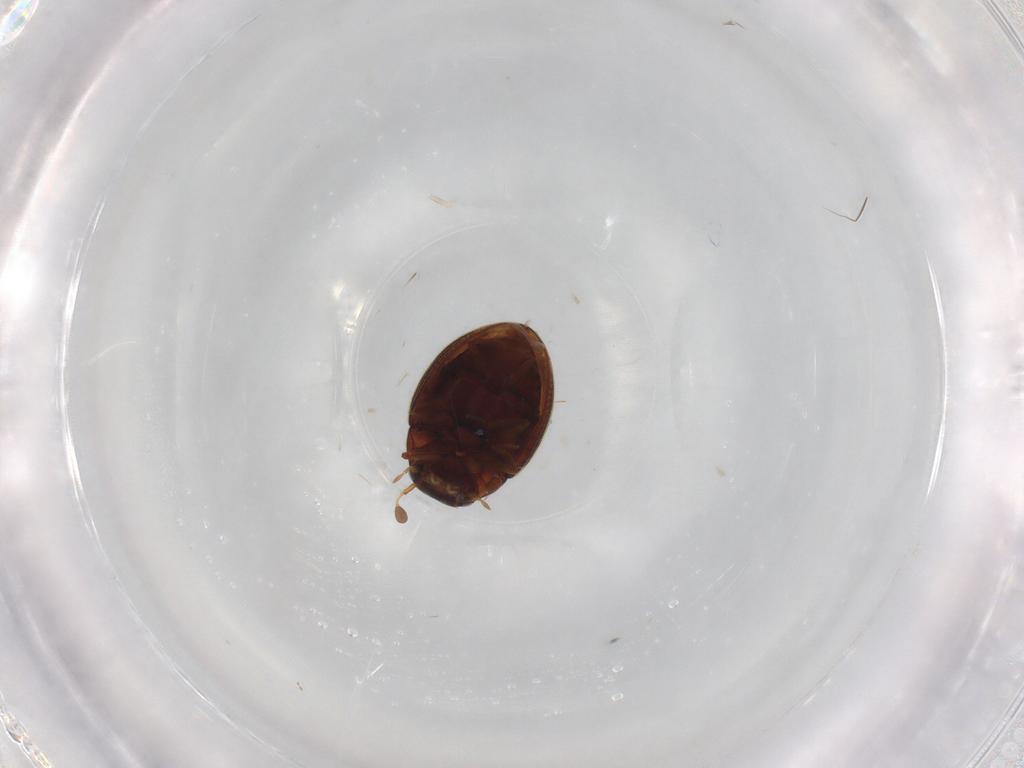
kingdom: Animalia
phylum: Arthropoda
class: Insecta
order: Coleoptera
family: Hydrophilidae
